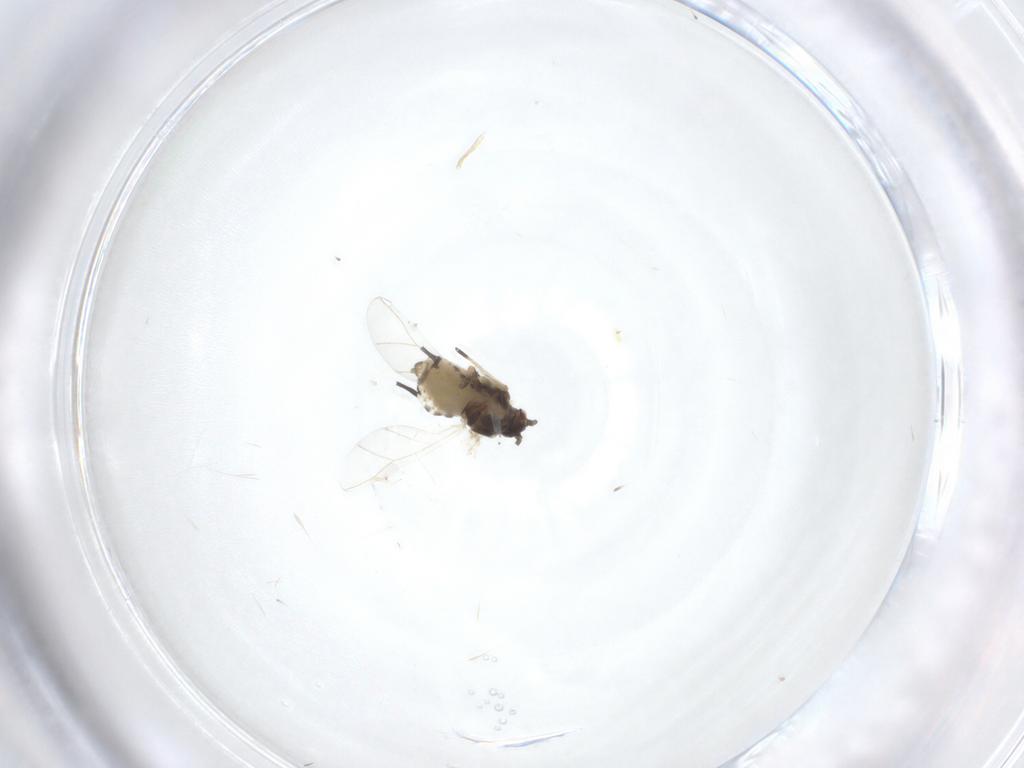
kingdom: Animalia
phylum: Arthropoda
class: Insecta
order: Hemiptera
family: Aphididae
